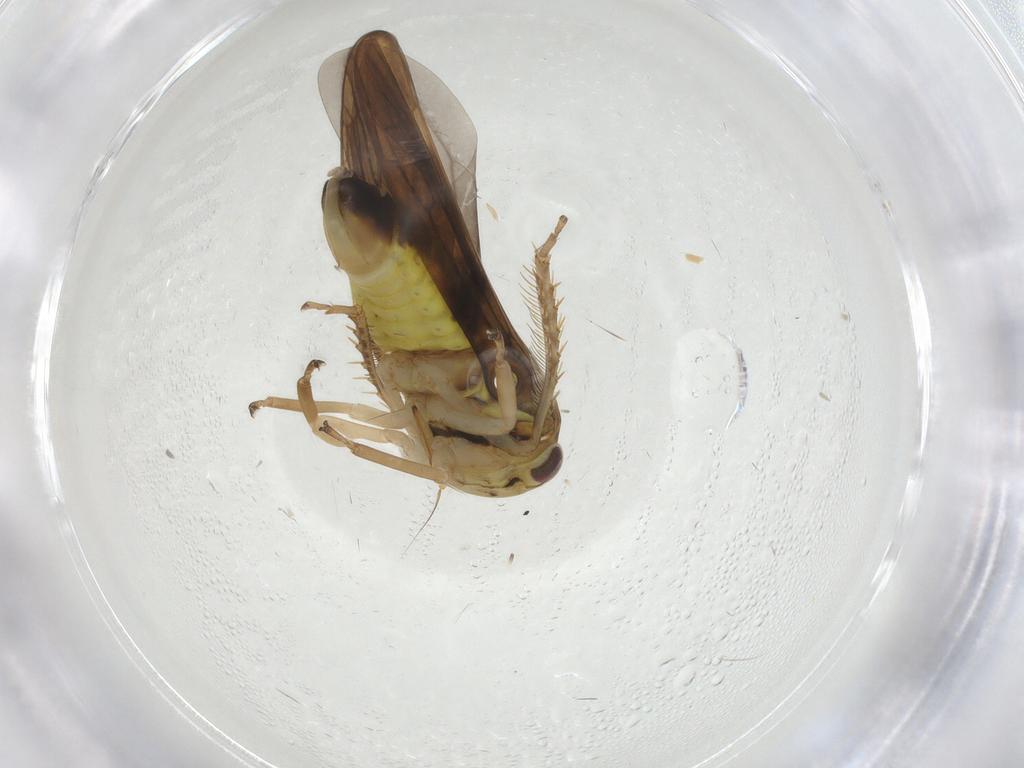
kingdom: Animalia
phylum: Arthropoda
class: Insecta
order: Hemiptera
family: Cicadellidae
